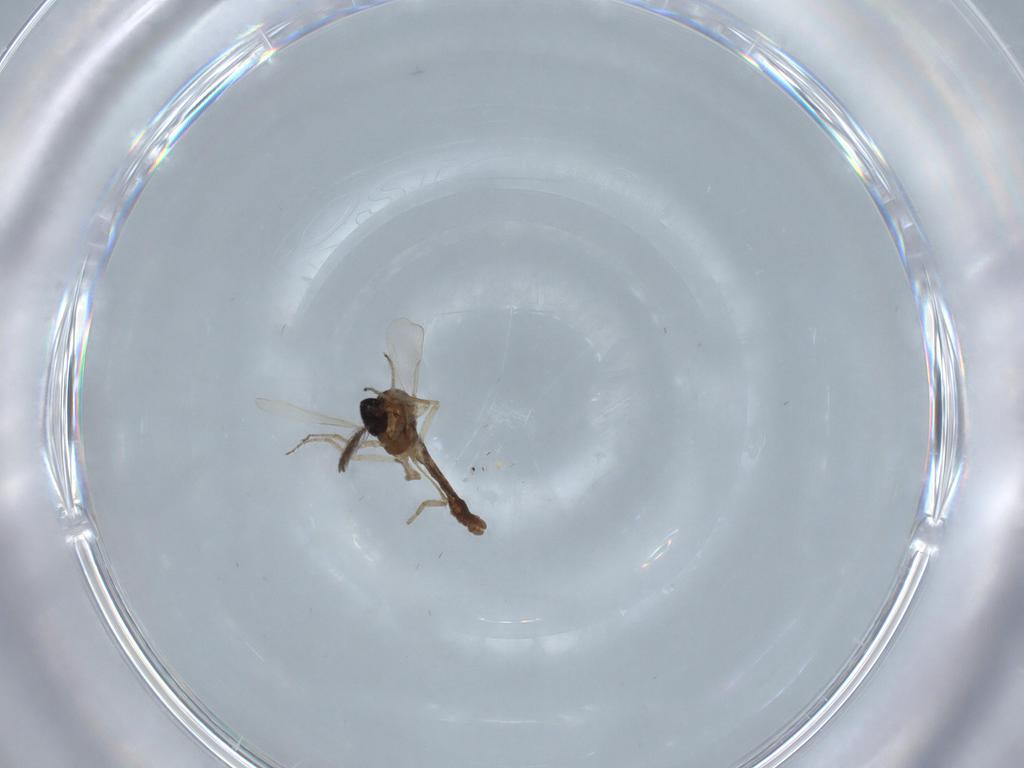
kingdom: Animalia
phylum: Arthropoda
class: Insecta
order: Diptera
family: Ceratopogonidae
